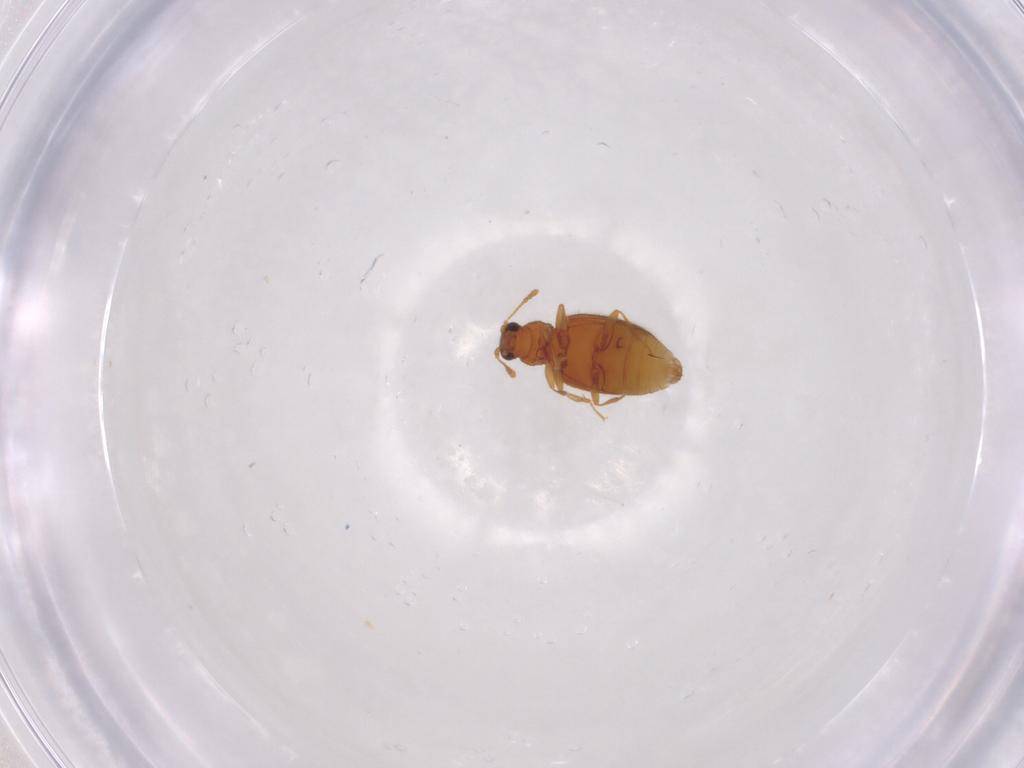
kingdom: Animalia
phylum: Arthropoda
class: Insecta
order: Coleoptera
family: Latridiidae
